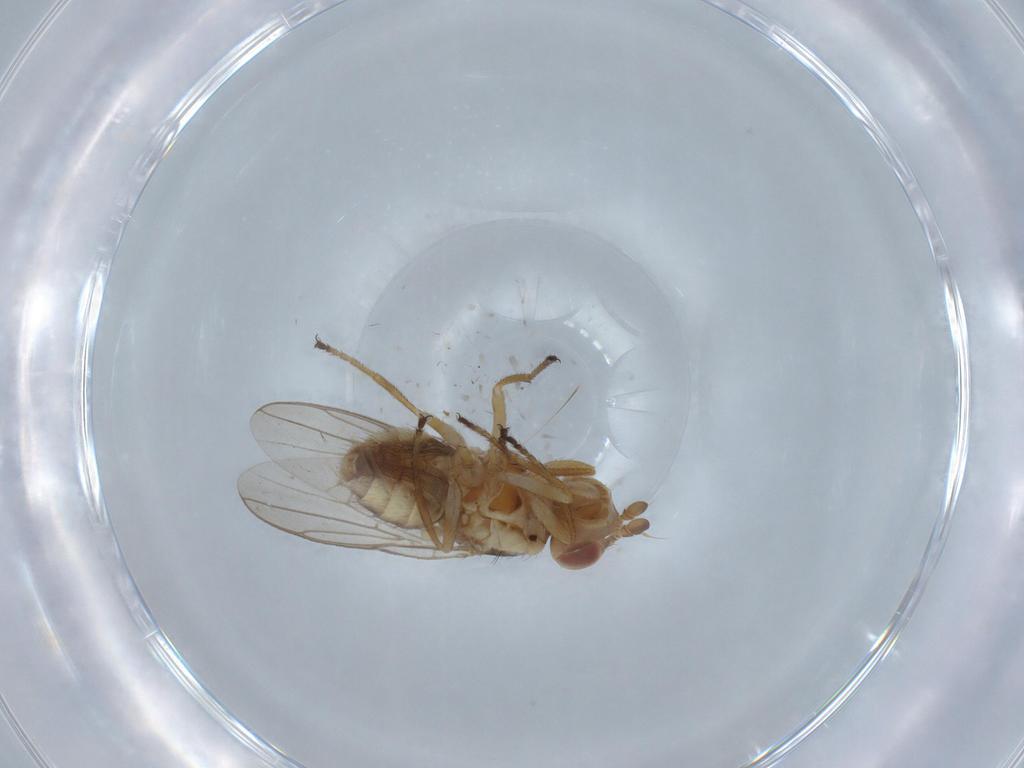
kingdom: Animalia
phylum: Arthropoda
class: Insecta
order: Diptera
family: Chloropidae
